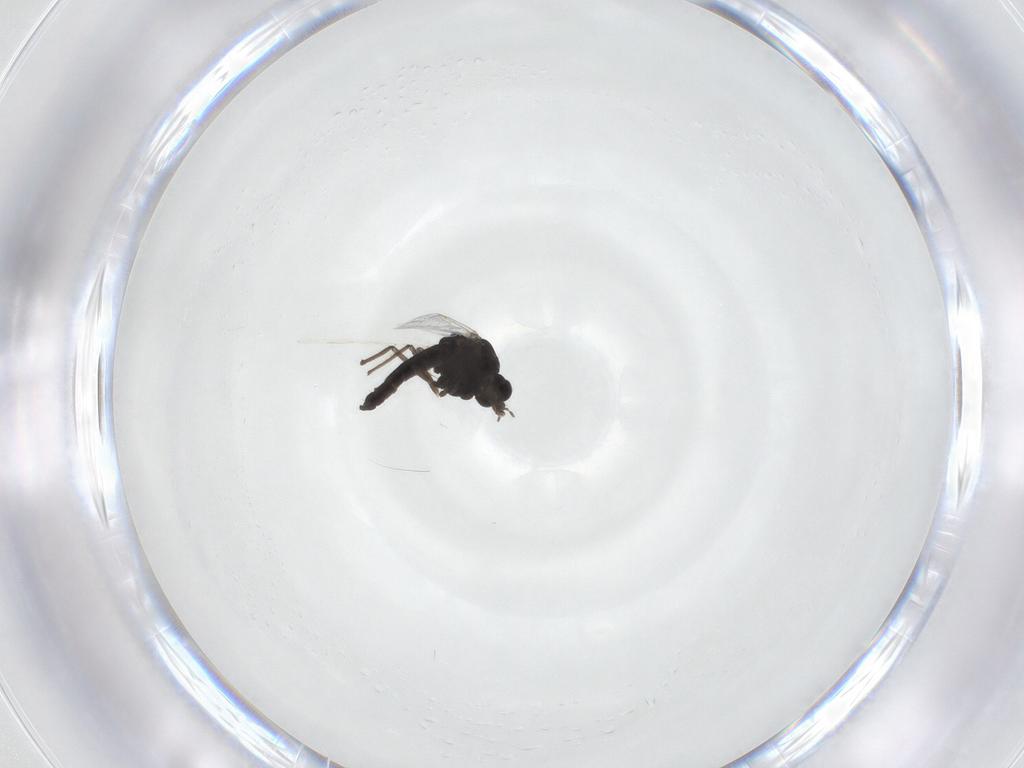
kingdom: Animalia
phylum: Arthropoda
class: Insecta
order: Diptera
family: Chironomidae
